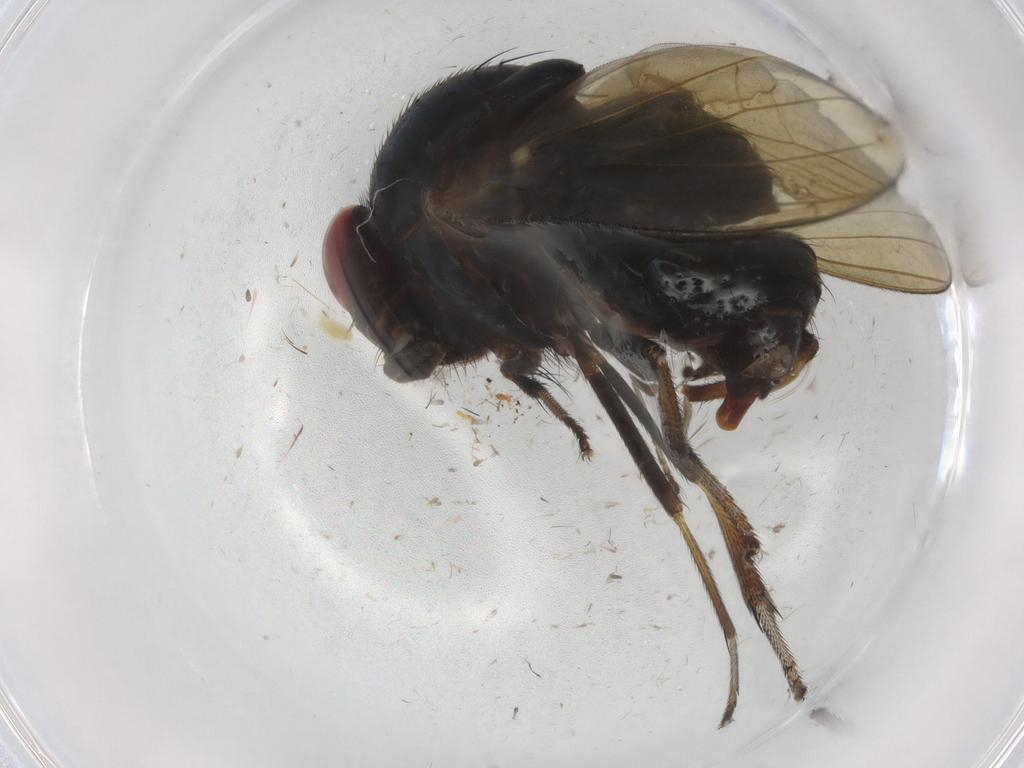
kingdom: Animalia
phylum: Arthropoda
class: Insecta
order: Diptera
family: Lauxaniidae
